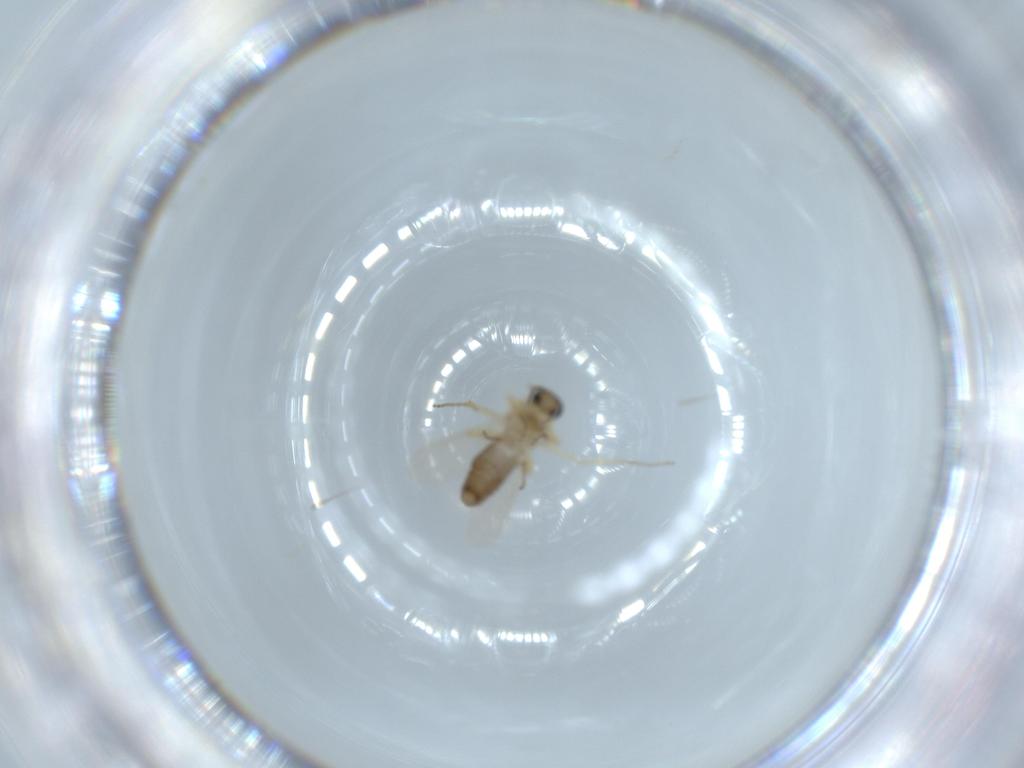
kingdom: Animalia
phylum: Arthropoda
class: Insecta
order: Diptera
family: Ceratopogonidae
